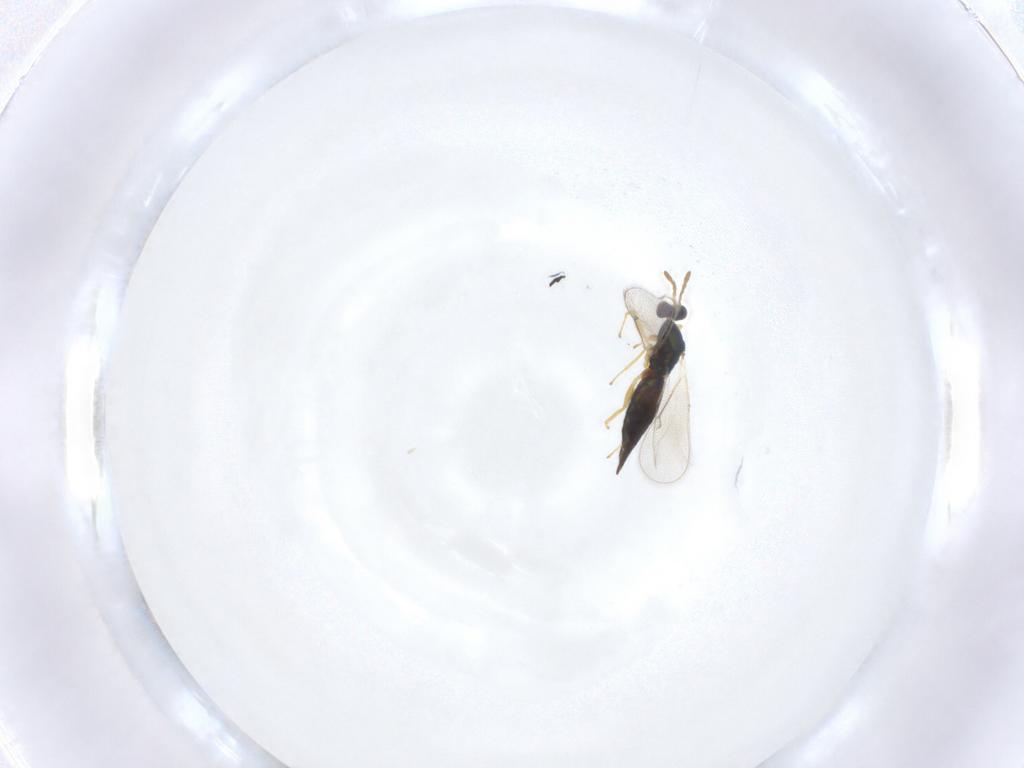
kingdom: Animalia
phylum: Arthropoda
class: Insecta
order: Hymenoptera
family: Eulophidae
